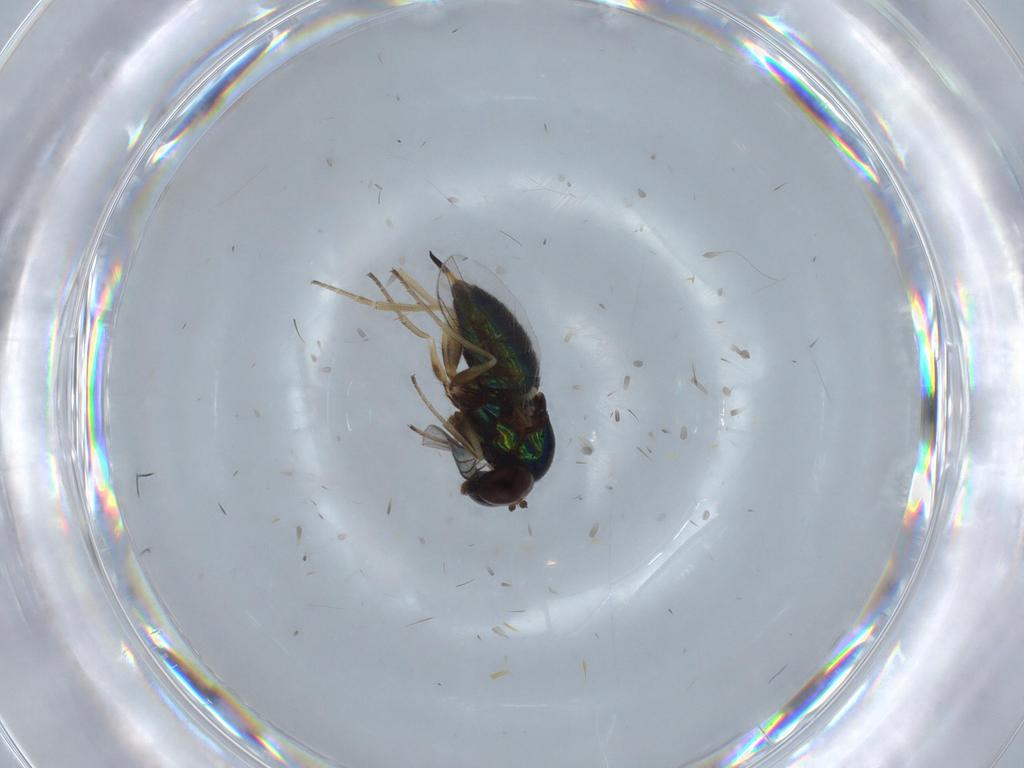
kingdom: Animalia
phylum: Arthropoda
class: Insecta
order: Diptera
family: Dolichopodidae
